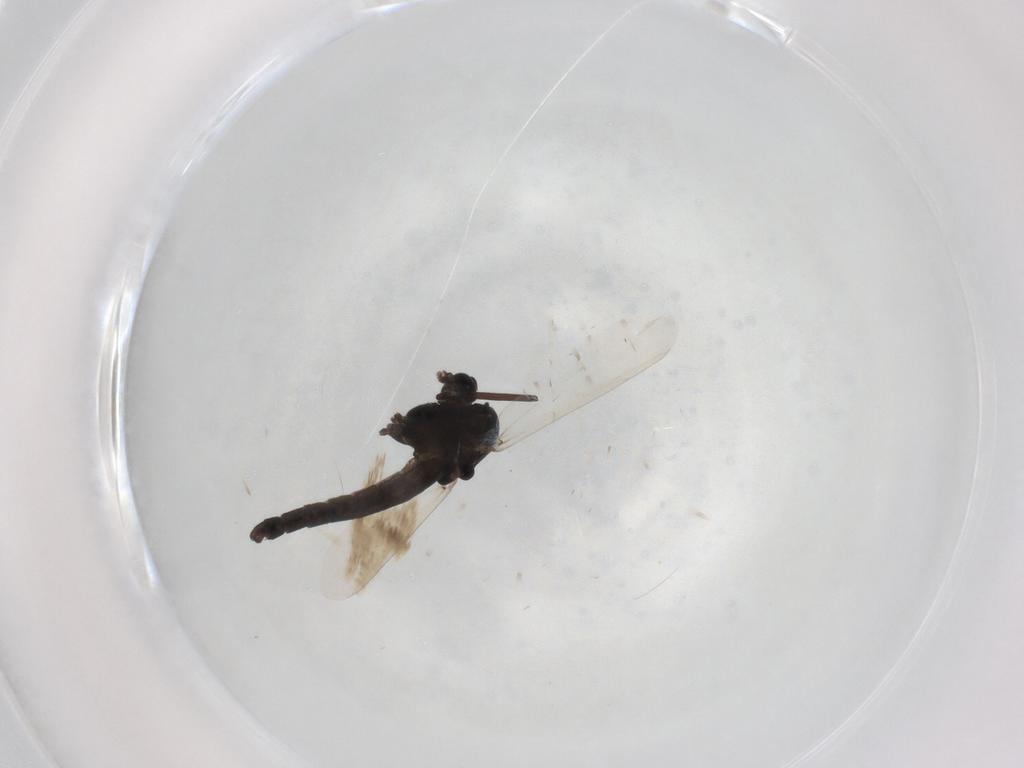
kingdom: Animalia
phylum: Arthropoda
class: Insecta
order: Diptera
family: Chironomidae
